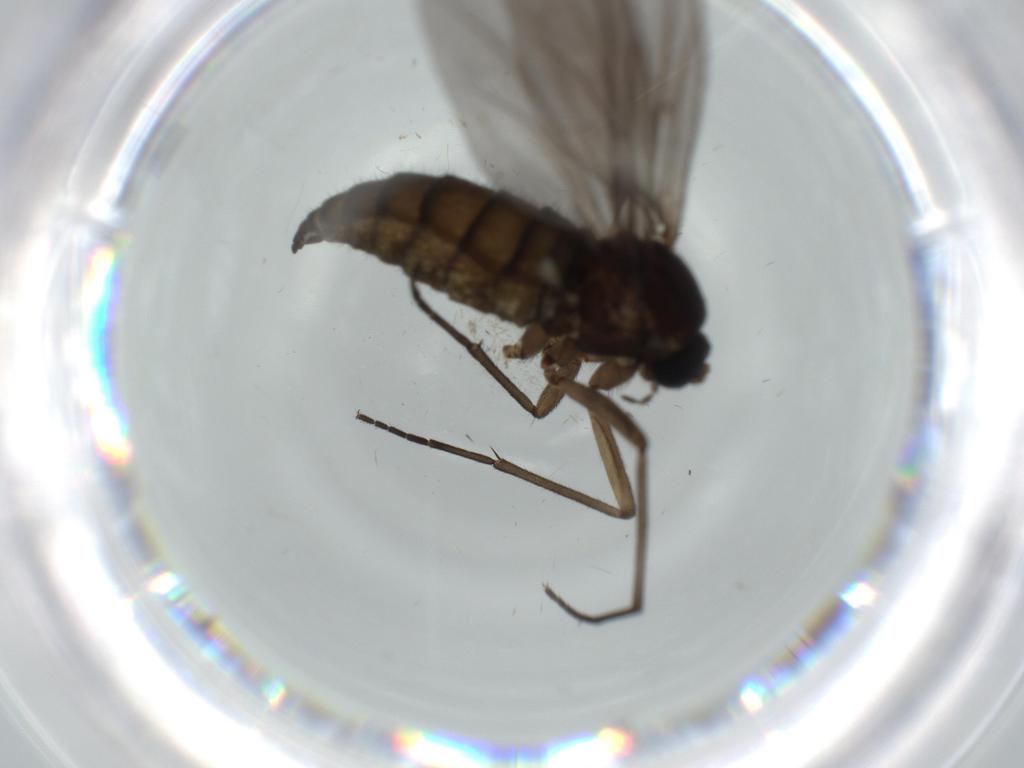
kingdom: Animalia
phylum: Arthropoda
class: Insecta
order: Diptera
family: Sciaridae
